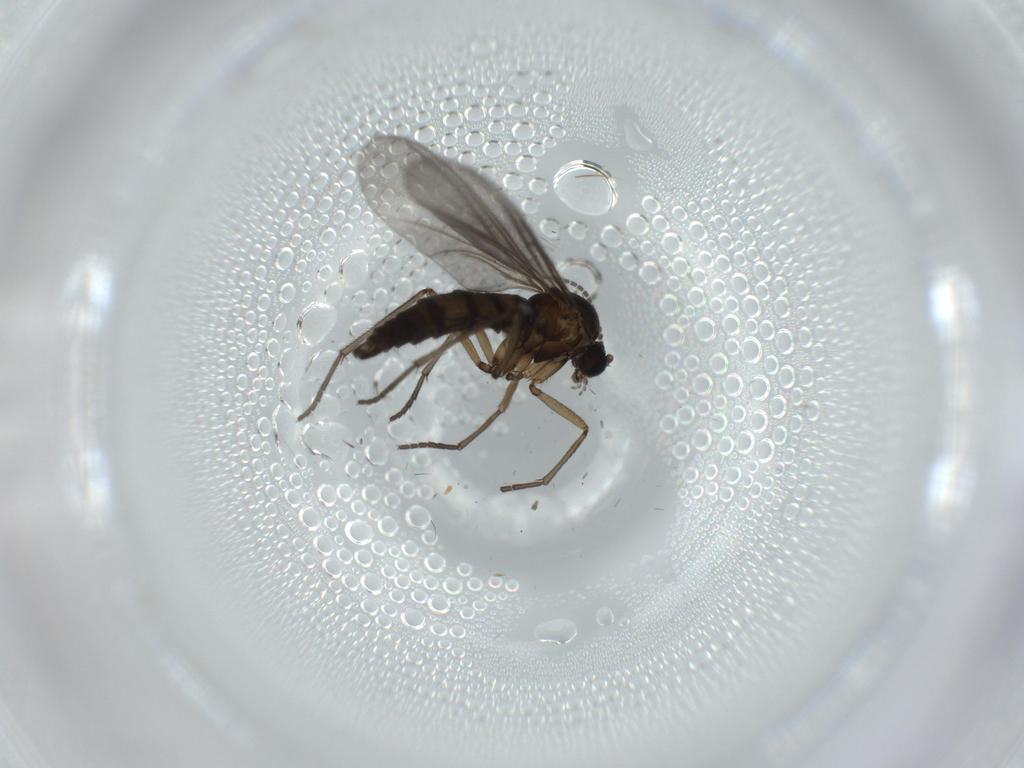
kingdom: Animalia
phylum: Arthropoda
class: Insecta
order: Diptera
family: Sciaridae
